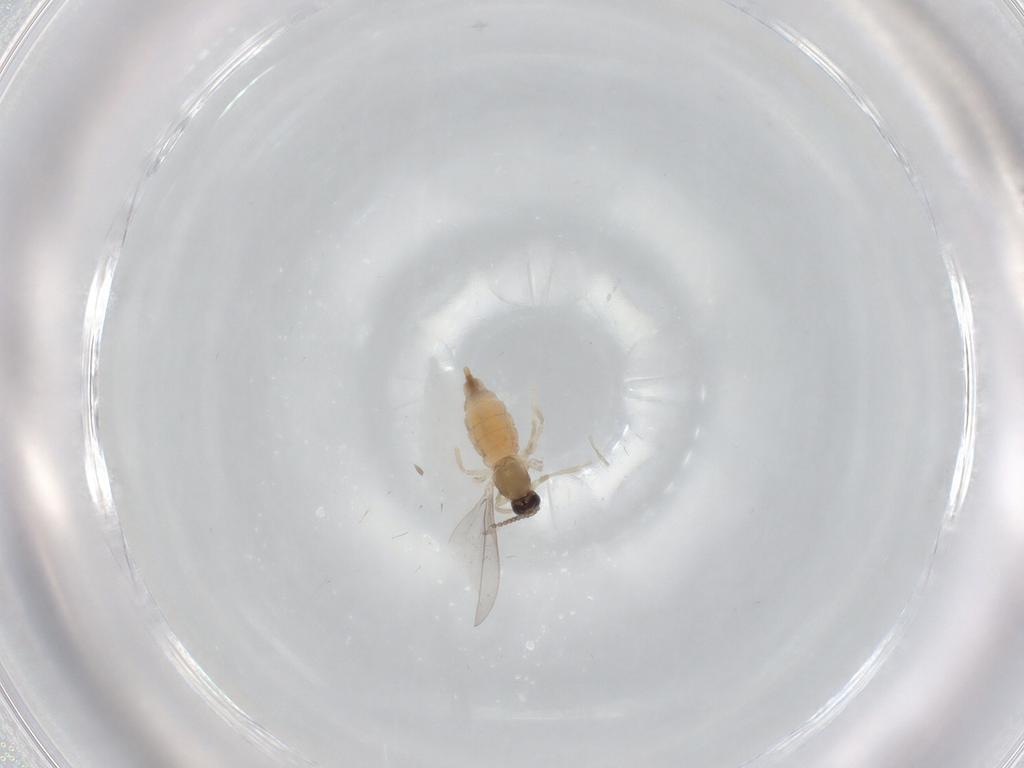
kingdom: Animalia
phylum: Arthropoda
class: Insecta
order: Diptera
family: Cecidomyiidae
